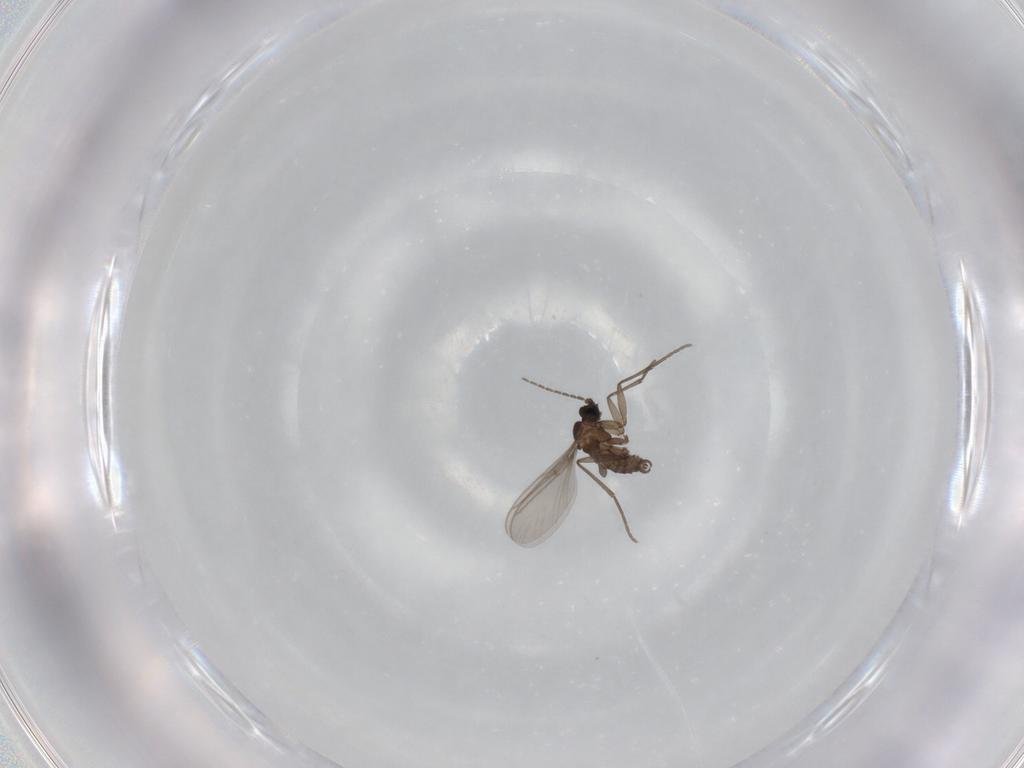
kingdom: Animalia
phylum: Arthropoda
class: Insecta
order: Diptera
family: Sciaridae
